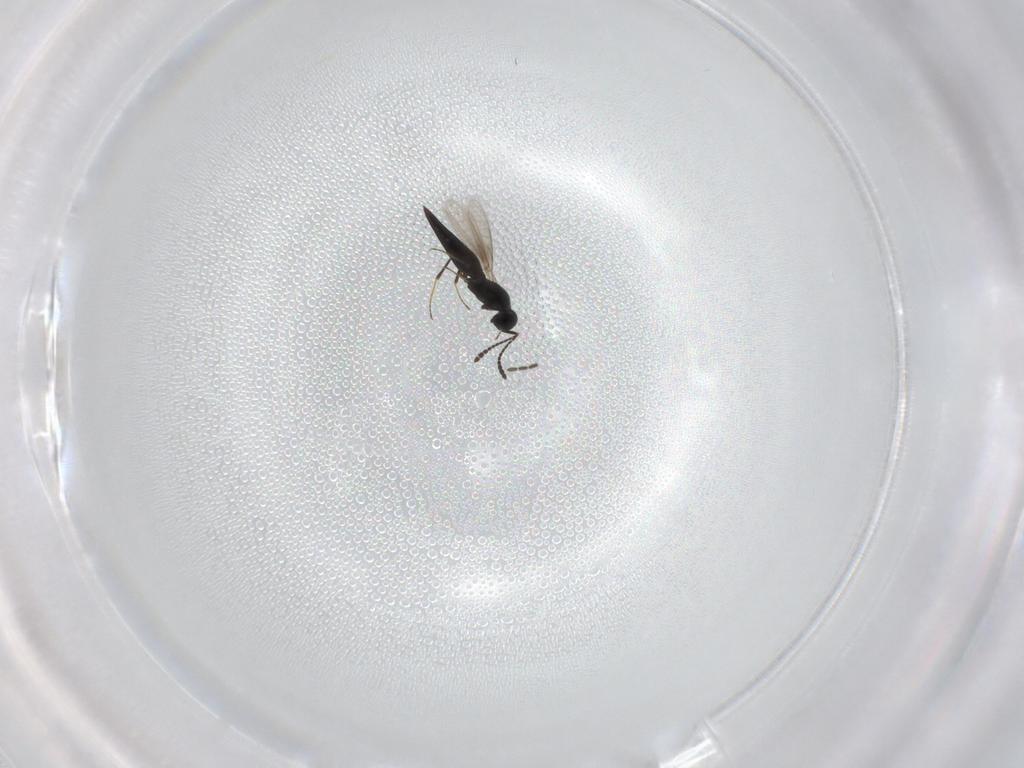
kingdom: Animalia
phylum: Arthropoda
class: Insecta
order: Hymenoptera
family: Scelionidae
